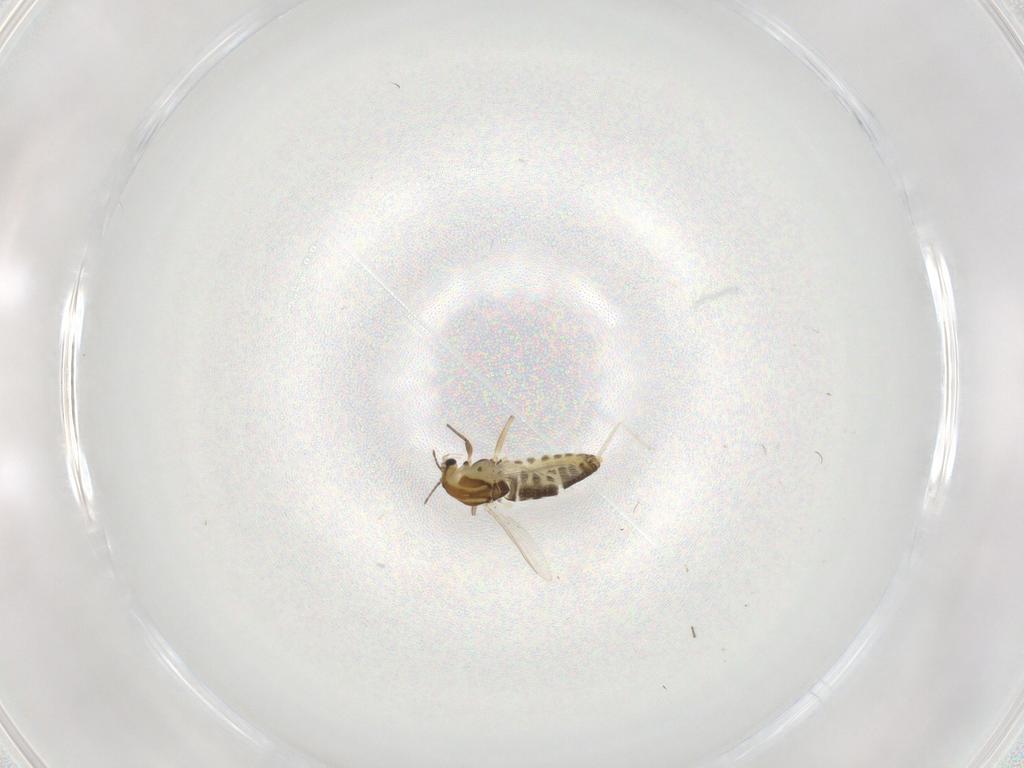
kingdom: Animalia
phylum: Arthropoda
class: Insecta
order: Diptera
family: Chironomidae
